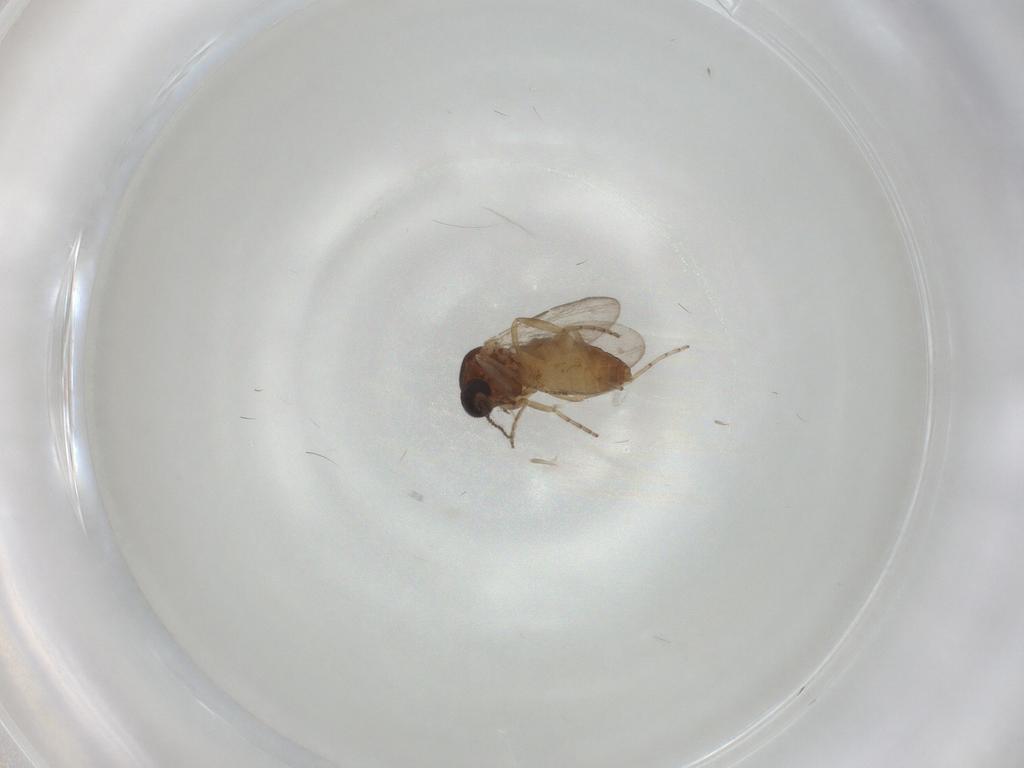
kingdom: Animalia
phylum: Arthropoda
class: Insecta
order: Diptera
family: Ceratopogonidae
